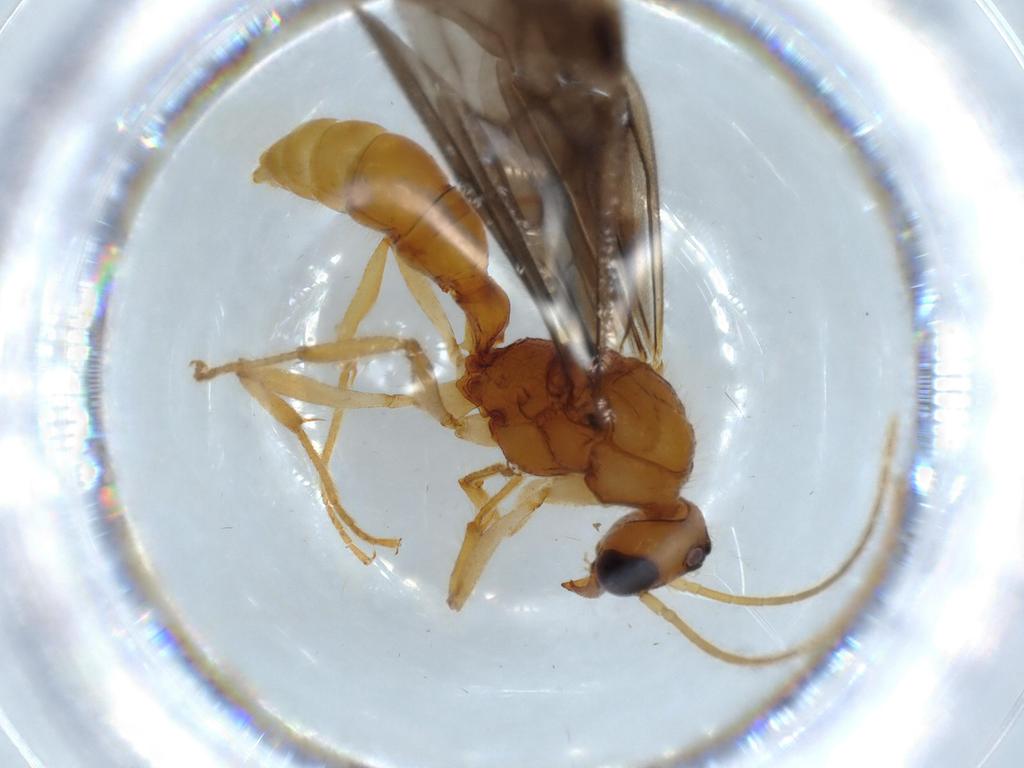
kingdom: Animalia
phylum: Arthropoda
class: Insecta
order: Hymenoptera
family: Formicidae
